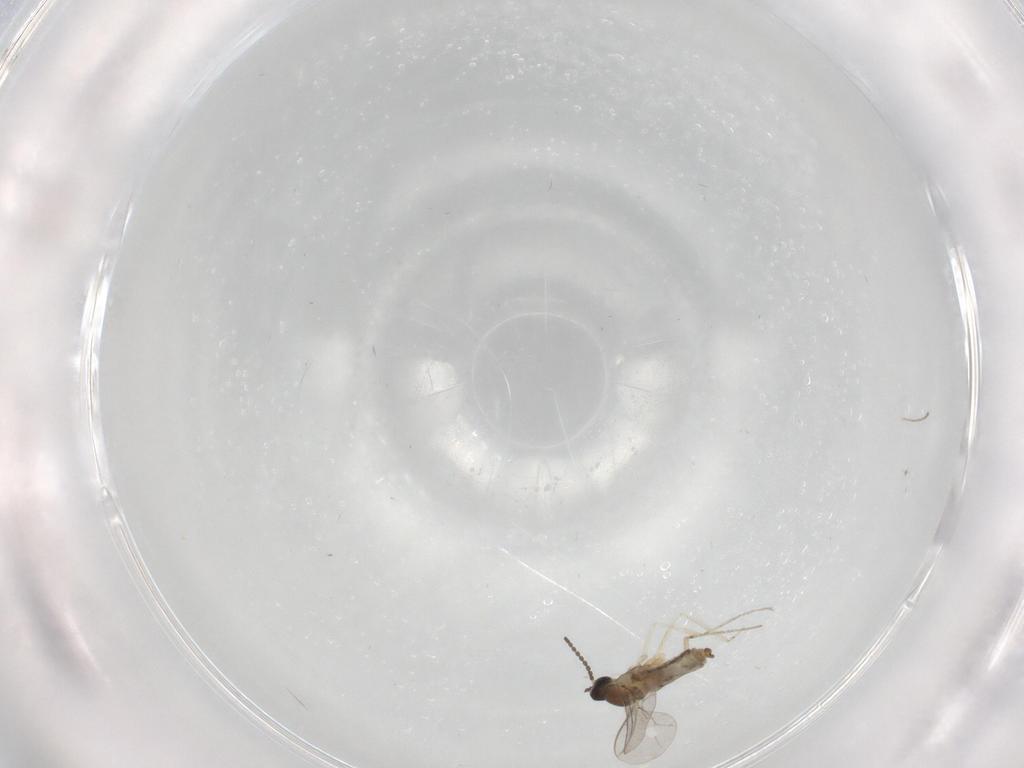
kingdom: Animalia
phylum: Arthropoda
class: Insecta
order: Diptera
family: Cecidomyiidae
